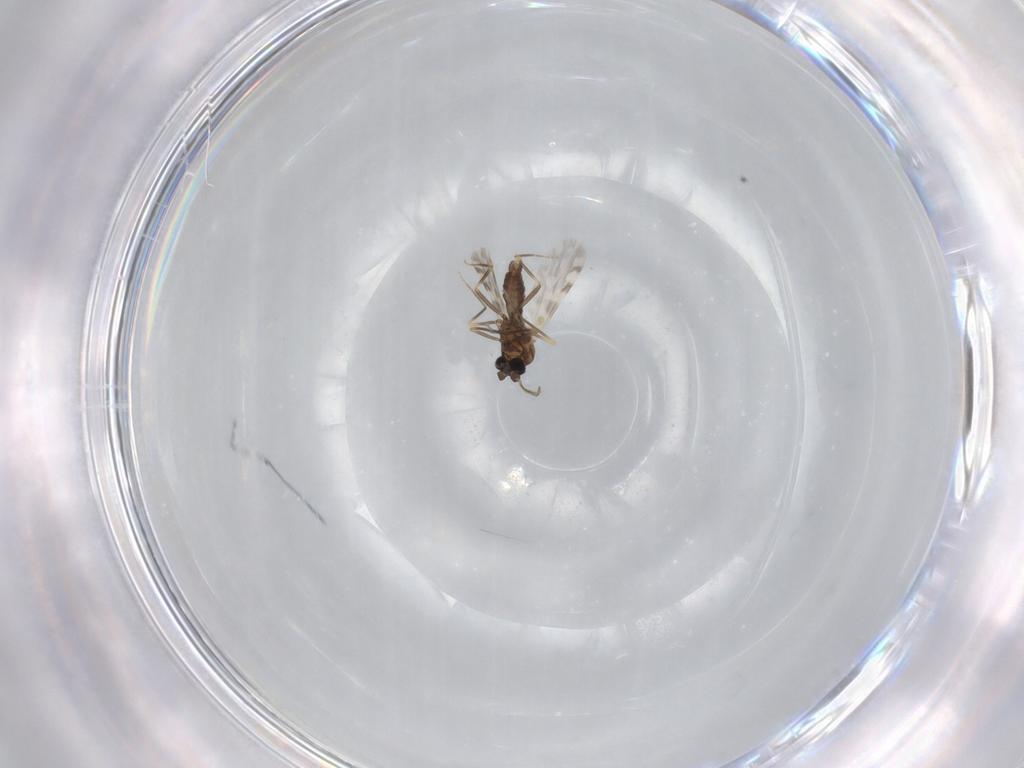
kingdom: Animalia
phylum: Arthropoda
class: Insecta
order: Diptera
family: Ceratopogonidae
